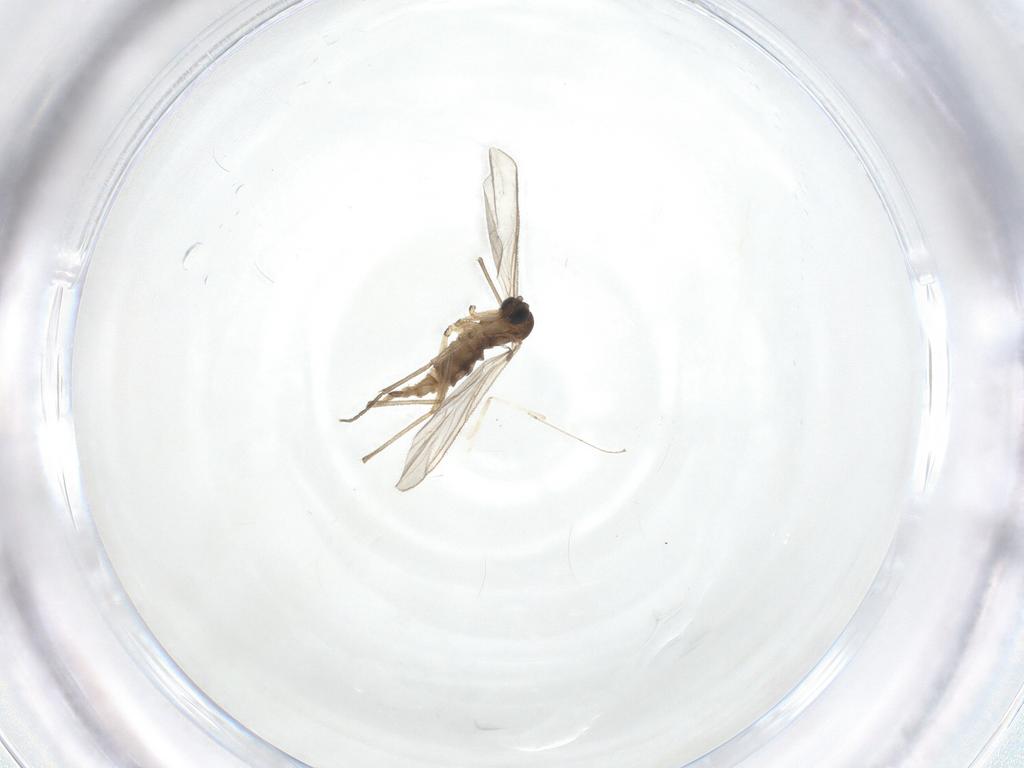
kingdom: Animalia
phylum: Arthropoda
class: Insecta
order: Diptera
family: Sciaridae
